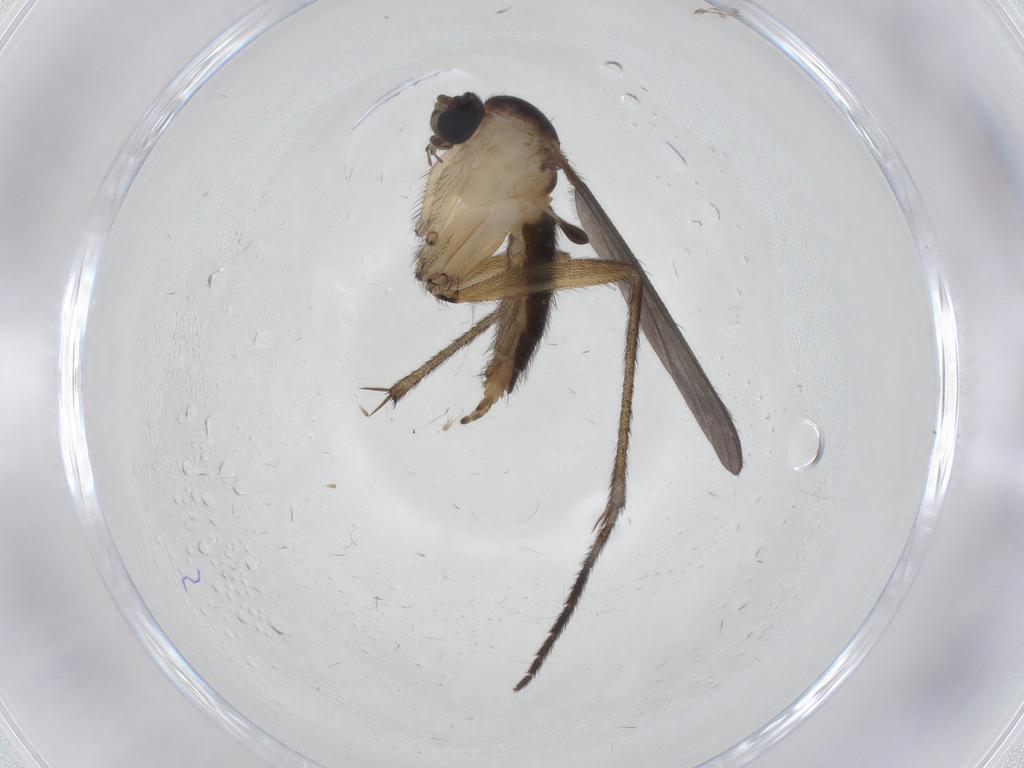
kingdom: Animalia
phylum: Arthropoda
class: Insecta
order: Diptera
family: Sciaridae
